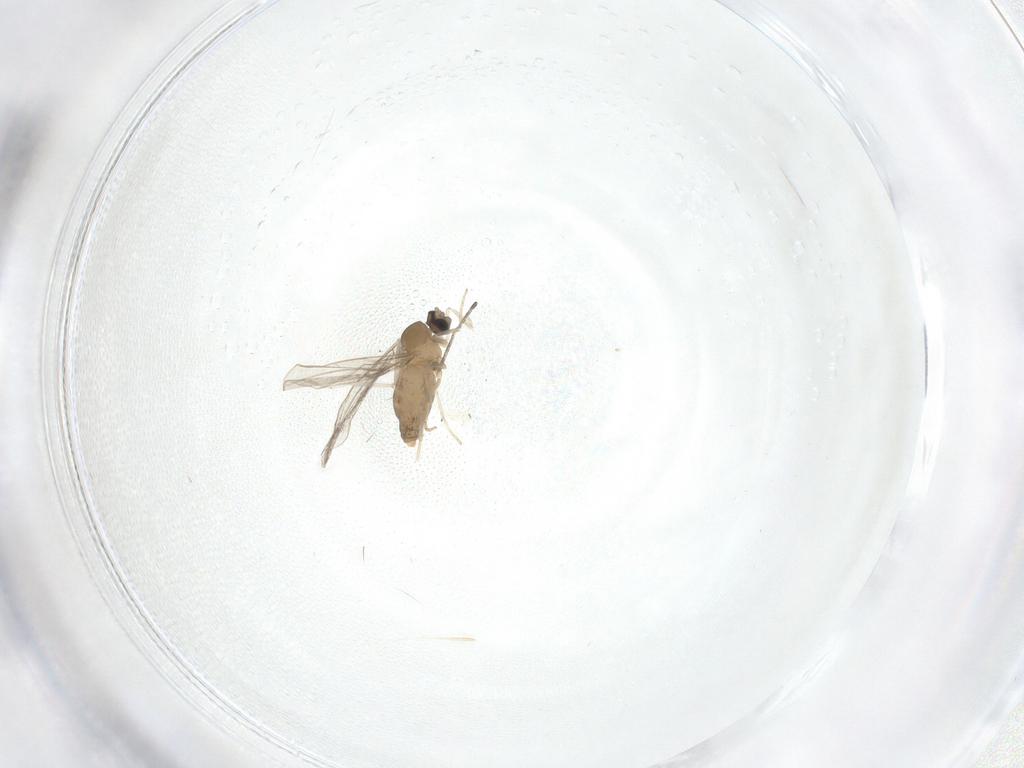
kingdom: Animalia
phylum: Arthropoda
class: Insecta
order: Diptera
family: Cecidomyiidae
